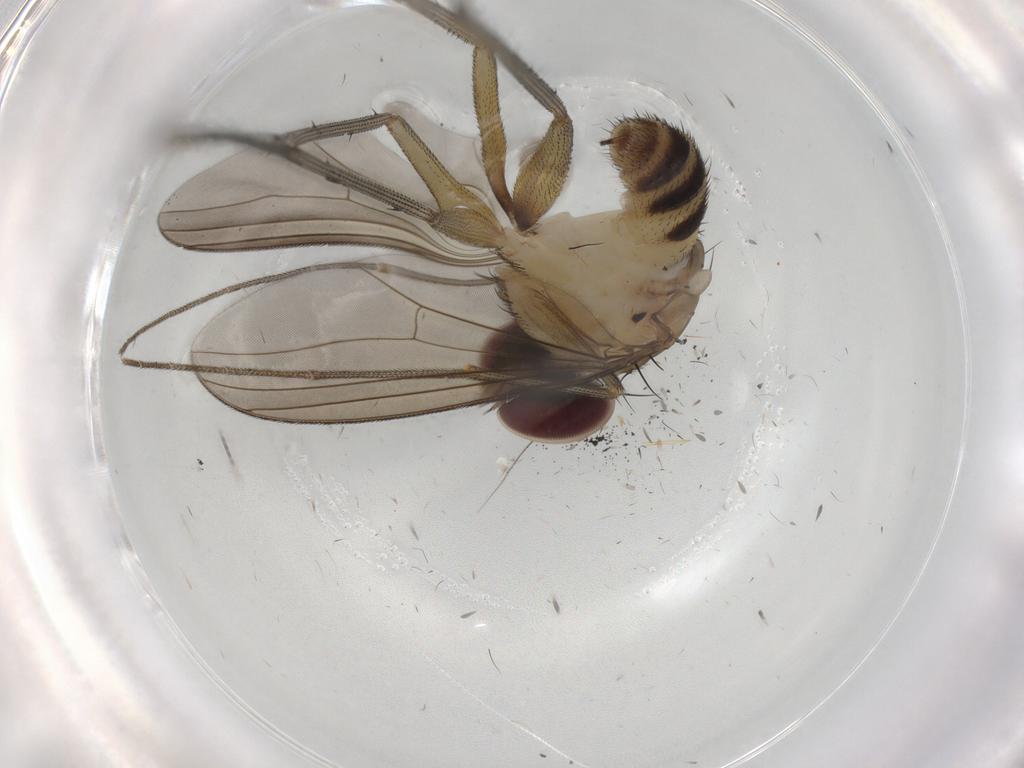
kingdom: Animalia
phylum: Arthropoda
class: Insecta
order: Diptera
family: Dolichopodidae
